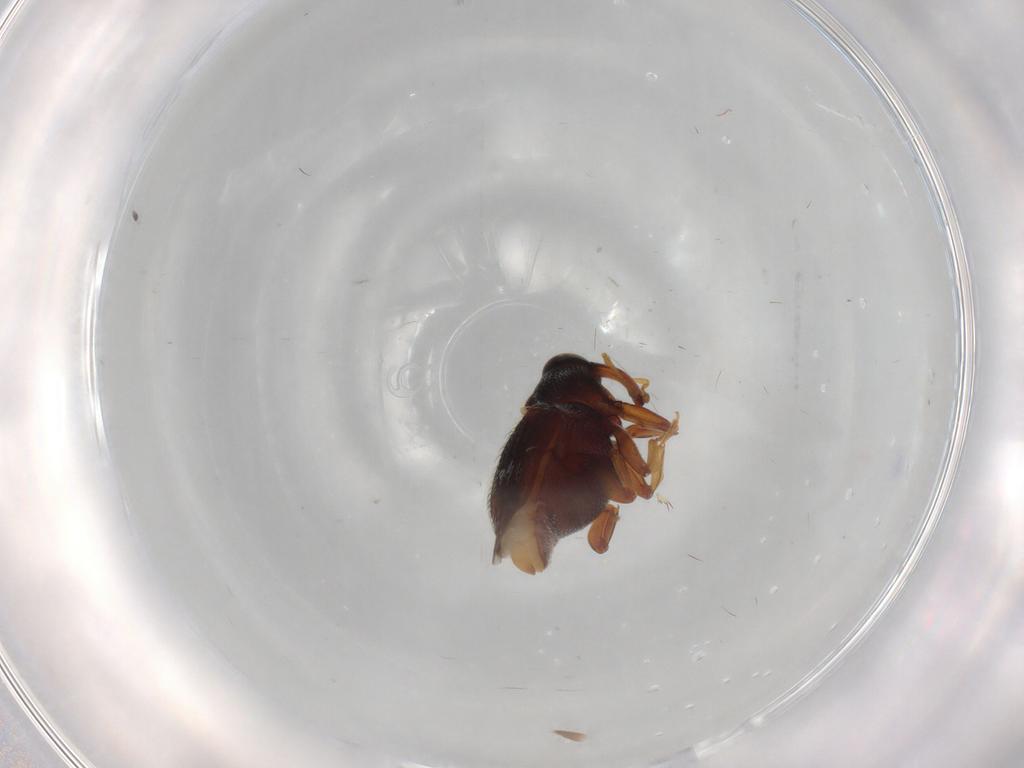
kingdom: Animalia
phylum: Arthropoda
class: Insecta
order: Coleoptera
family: Curculionidae
